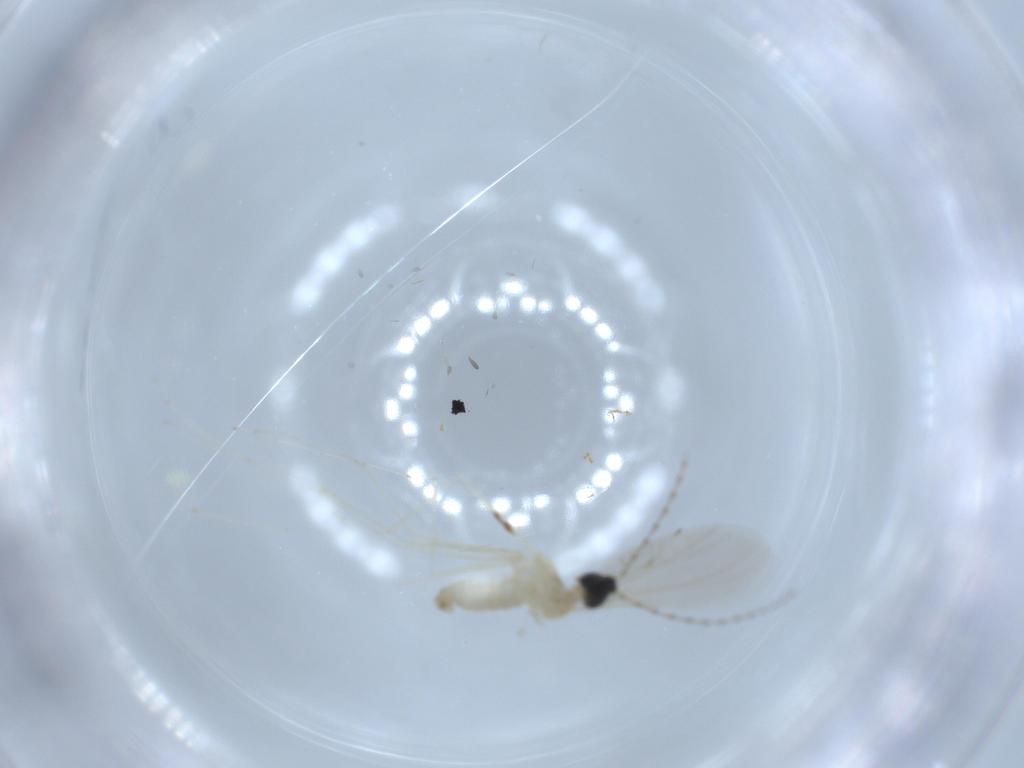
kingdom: Animalia
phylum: Arthropoda
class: Insecta
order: Diptera
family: Cecidomyiidae
